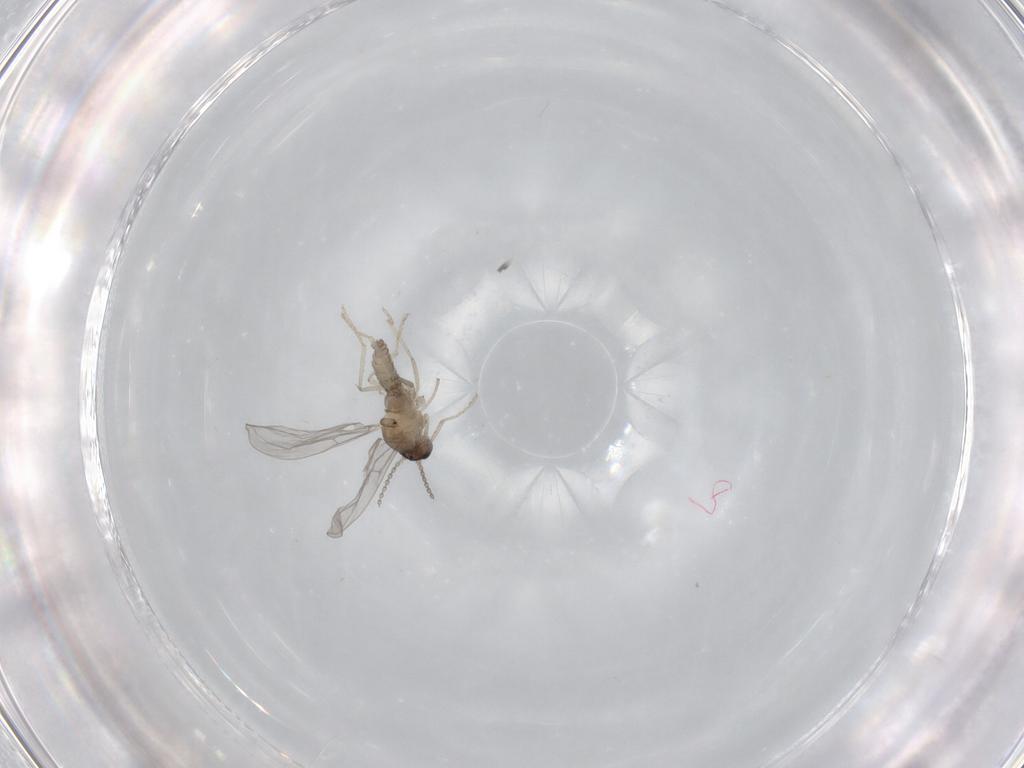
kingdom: Animalia
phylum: Arthropoda
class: Insecta
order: Diptera
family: Cecidomyiidae
